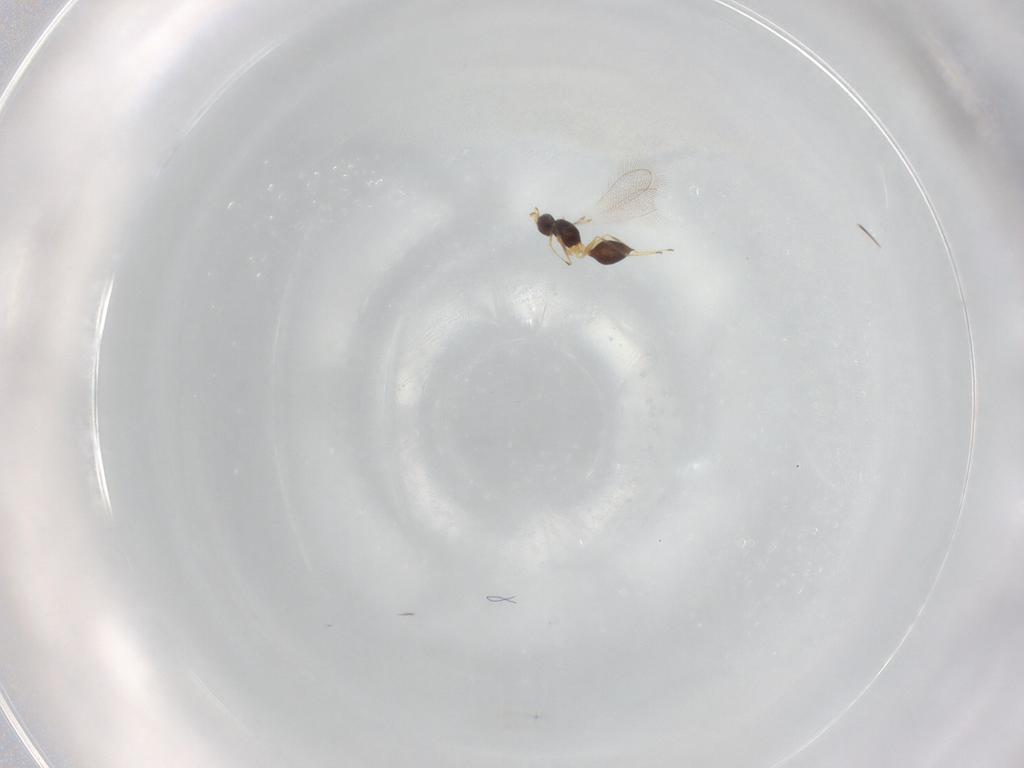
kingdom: Animalia
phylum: Arthropoda
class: Insecta
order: Hymenoptera
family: Mymaridae
